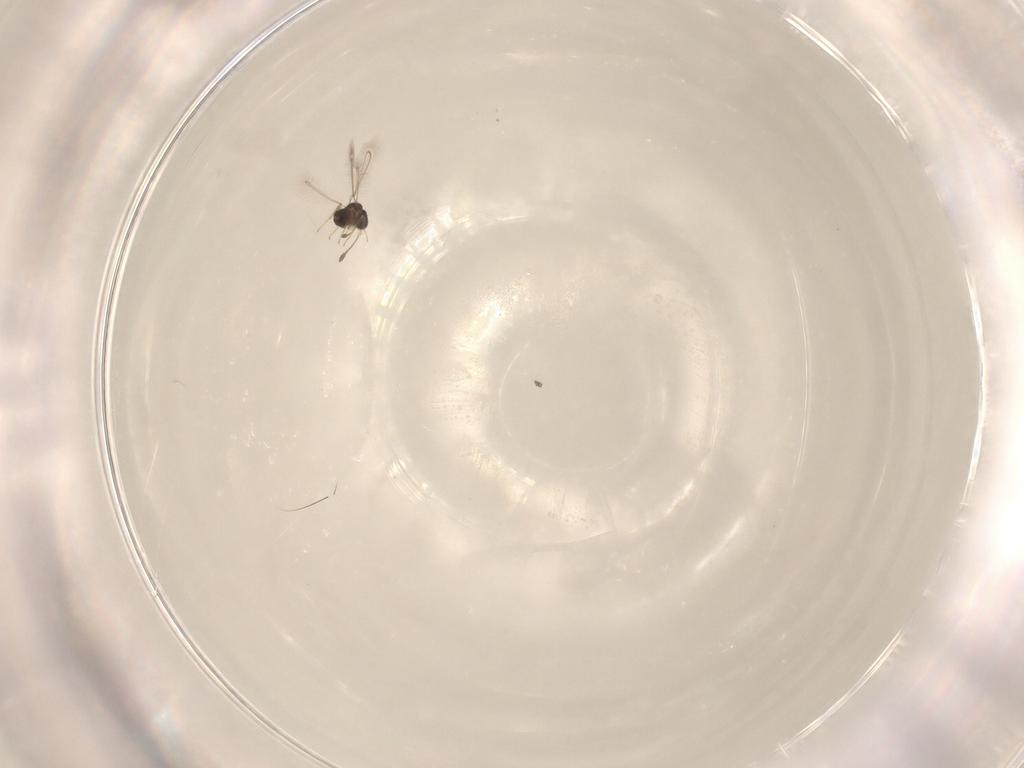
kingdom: Animalia
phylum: Arthropoda
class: Insecta
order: Hymenoptera
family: Mymaridae
